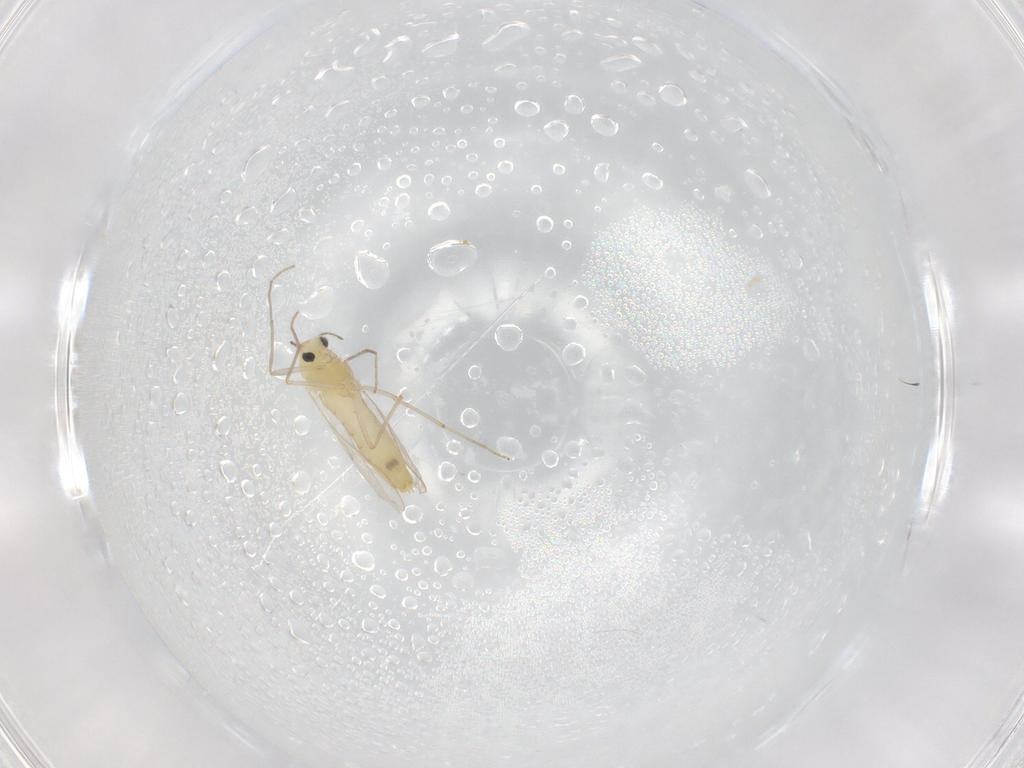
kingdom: Animalia
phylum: Arthropoda
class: Insecta
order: Diptera
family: Chironomidae
